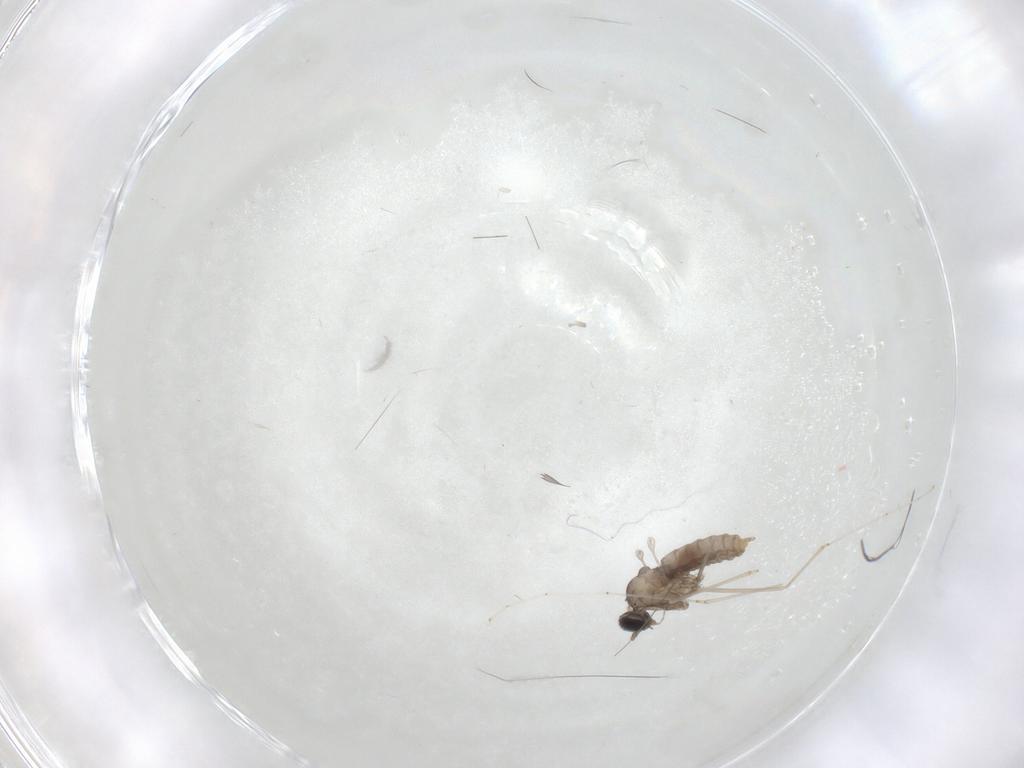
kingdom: Animalia
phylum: Arthropoda
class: Insecta
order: Diptera
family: Cecidomyiidae
